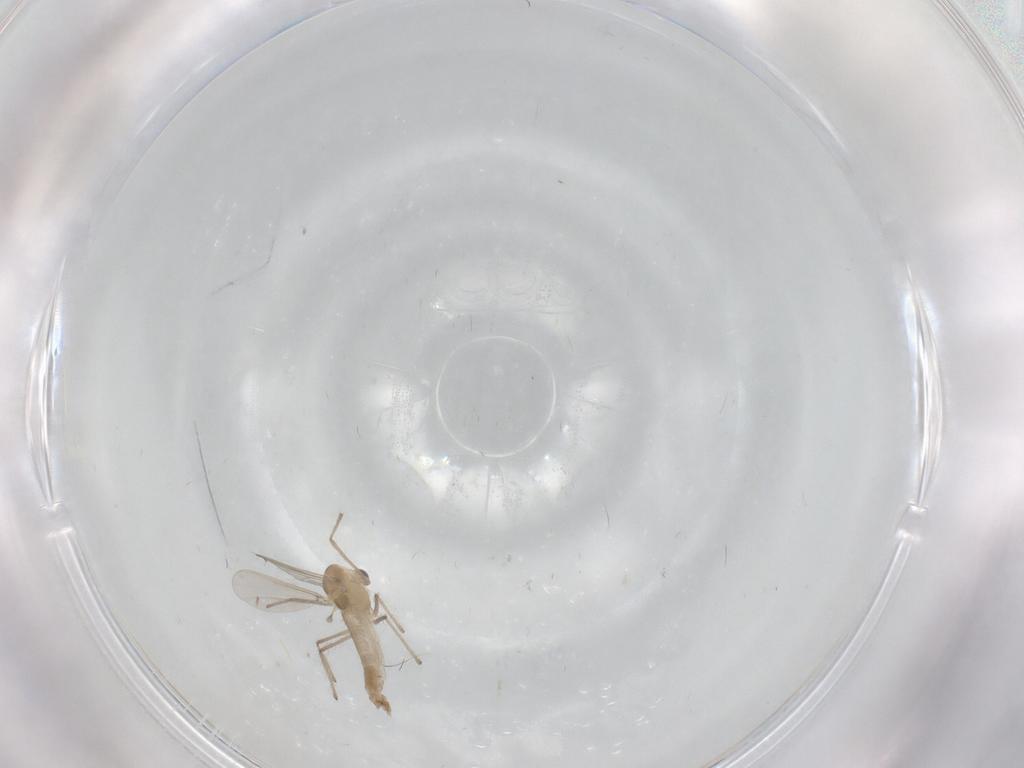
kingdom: Animalia
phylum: Arthropoda
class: Insecta
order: Diptera
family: Chironomidae
